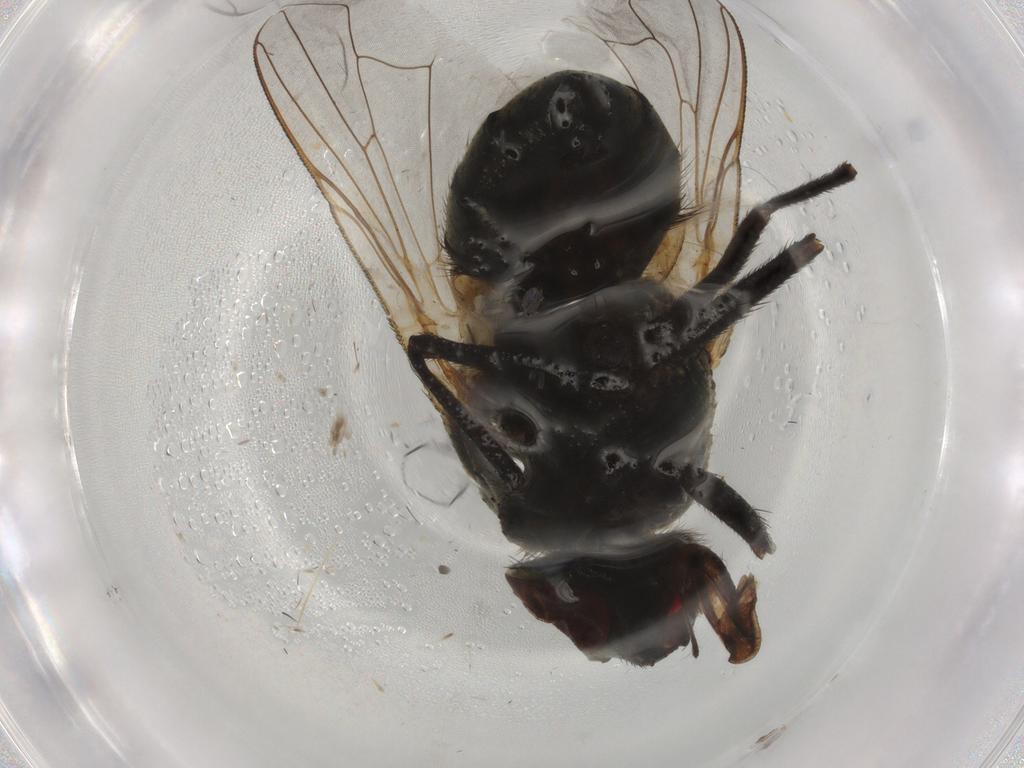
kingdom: Animalia
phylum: Arthropoda
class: Insecta
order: Diptera
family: Muscidae
